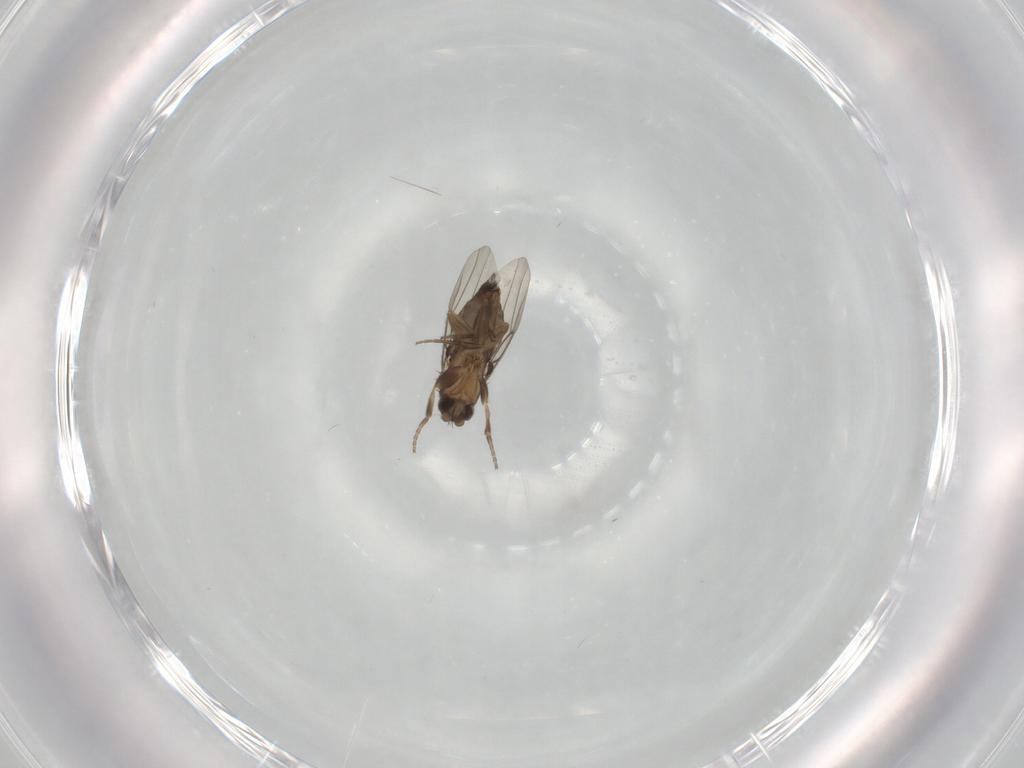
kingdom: Animalia
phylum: Arthropoda
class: Insecta
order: Diptera
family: Phoridae
